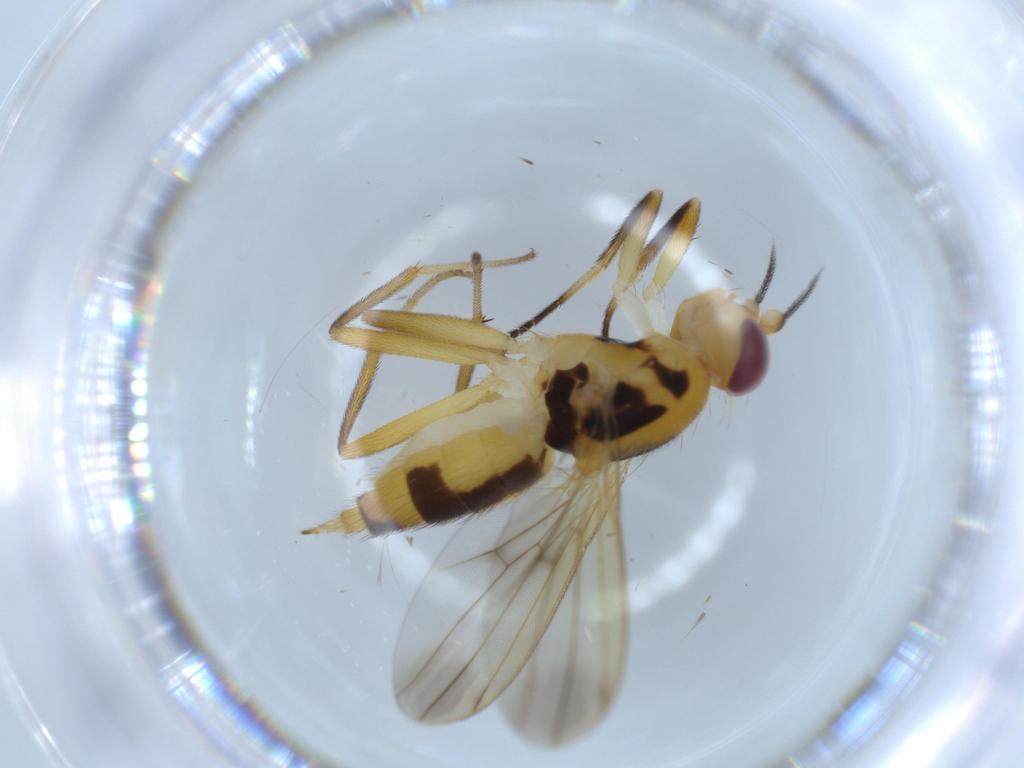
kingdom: Animalia
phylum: Arthropoda
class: Insecta
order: Diptera
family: Clusiidae
